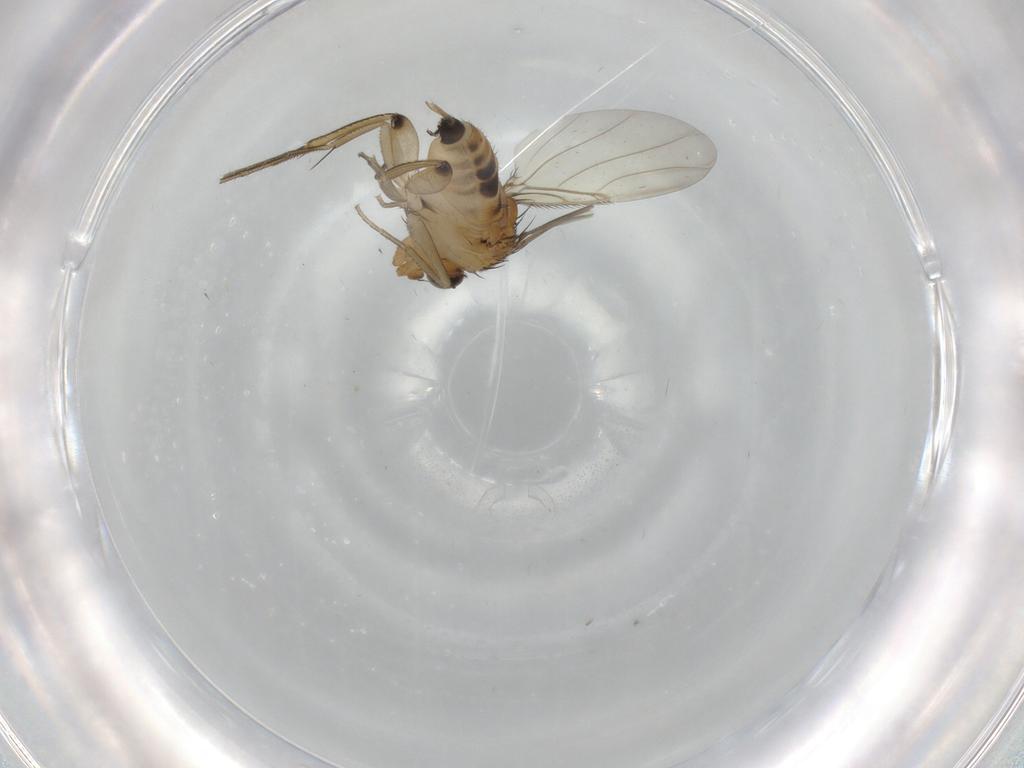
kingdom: Animalia
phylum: Arthropoda
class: Insecta
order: Diptera
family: Phoridae
